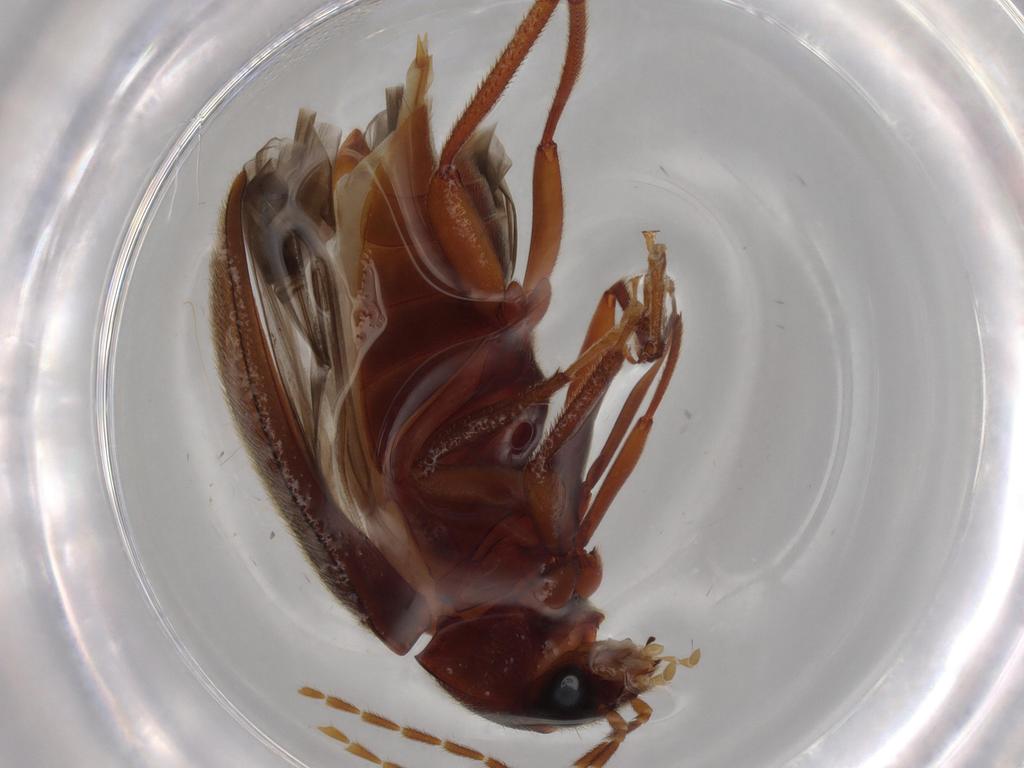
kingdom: Animalia
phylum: Arthropoda
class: Insecta
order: Coleoptera
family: Ptilodactylidae
